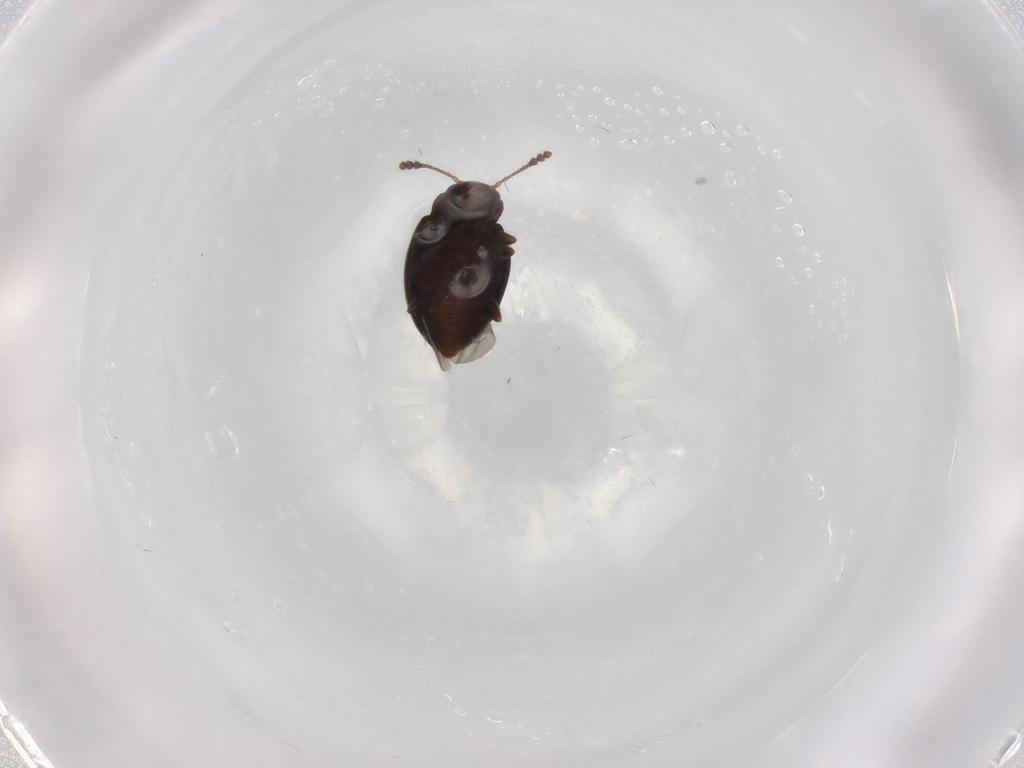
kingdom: Animalia
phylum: Arthropoda
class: Insecta
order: Coleoptera
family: Erotylidae
